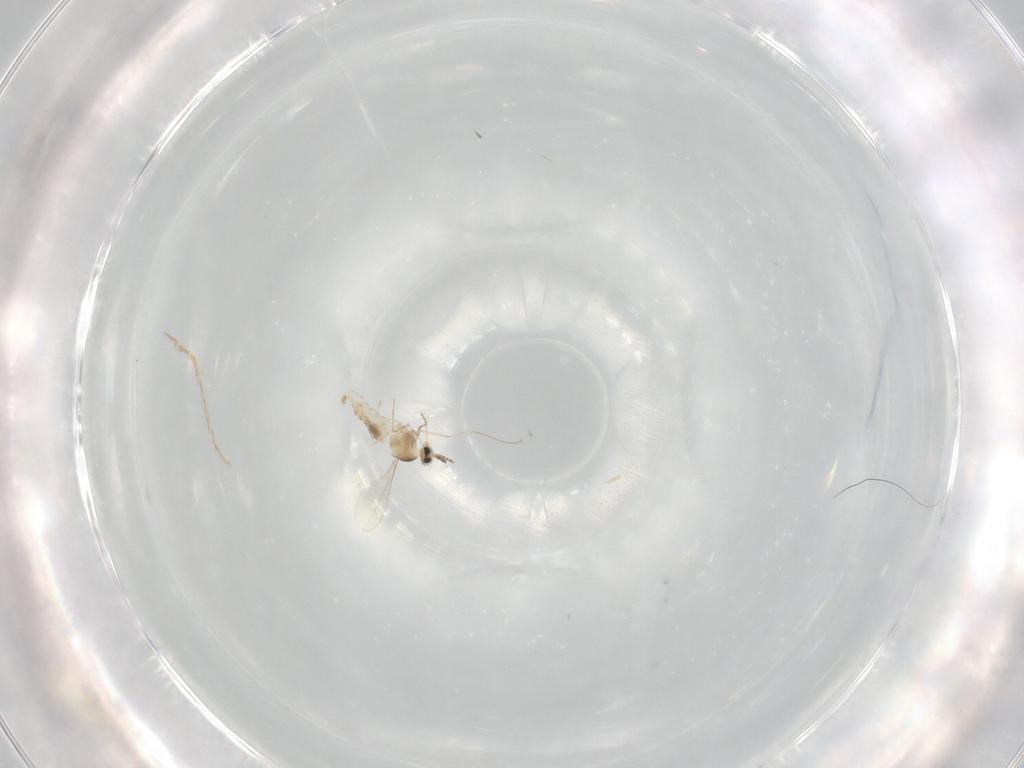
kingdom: Animalia
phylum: Arthropoda
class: Insecta
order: Diptera
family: Cecidomyiidae
